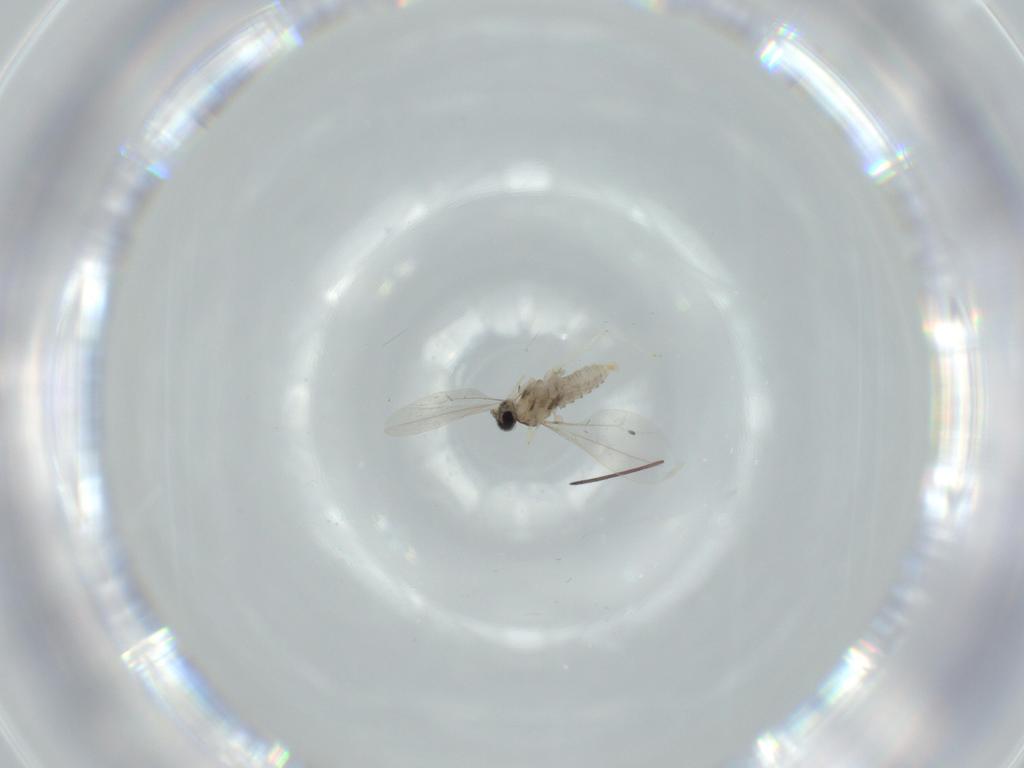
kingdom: Animalia
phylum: Arthropoda
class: Insecta
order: Diptera
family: Cecidomyiidae
